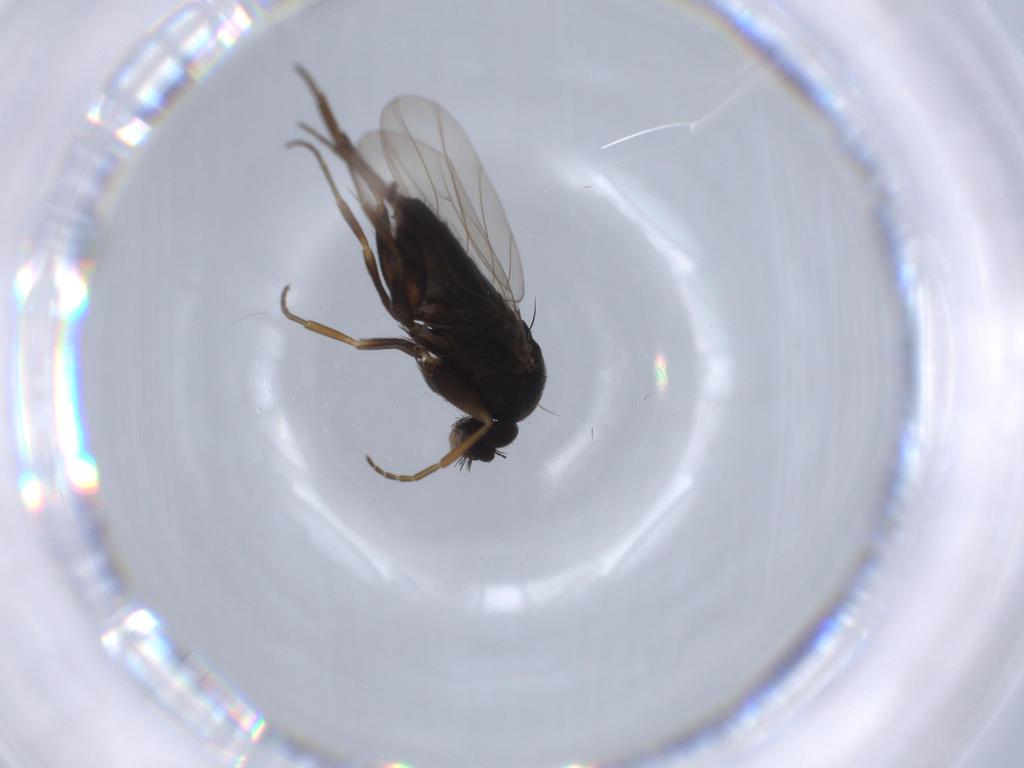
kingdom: Animalia
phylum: Arthropoda
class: Insecta
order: Diptera
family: Phoridae
